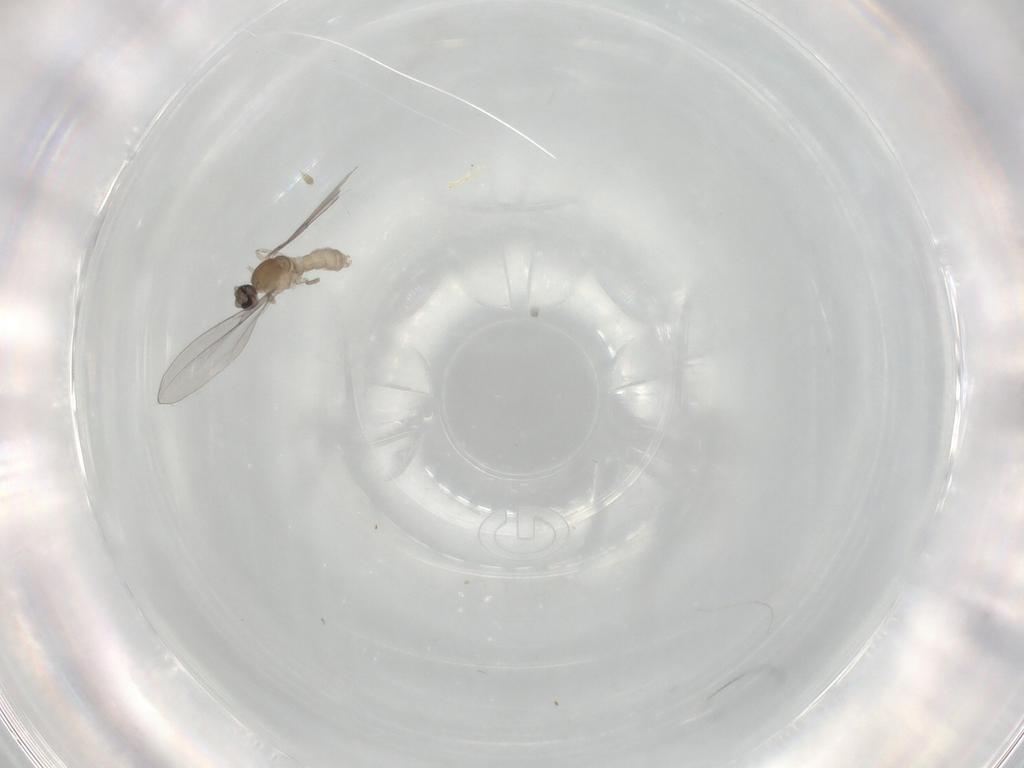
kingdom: Animalia
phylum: Arthropoda
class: Insecta
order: Diptera
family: Cecidomyiidae
